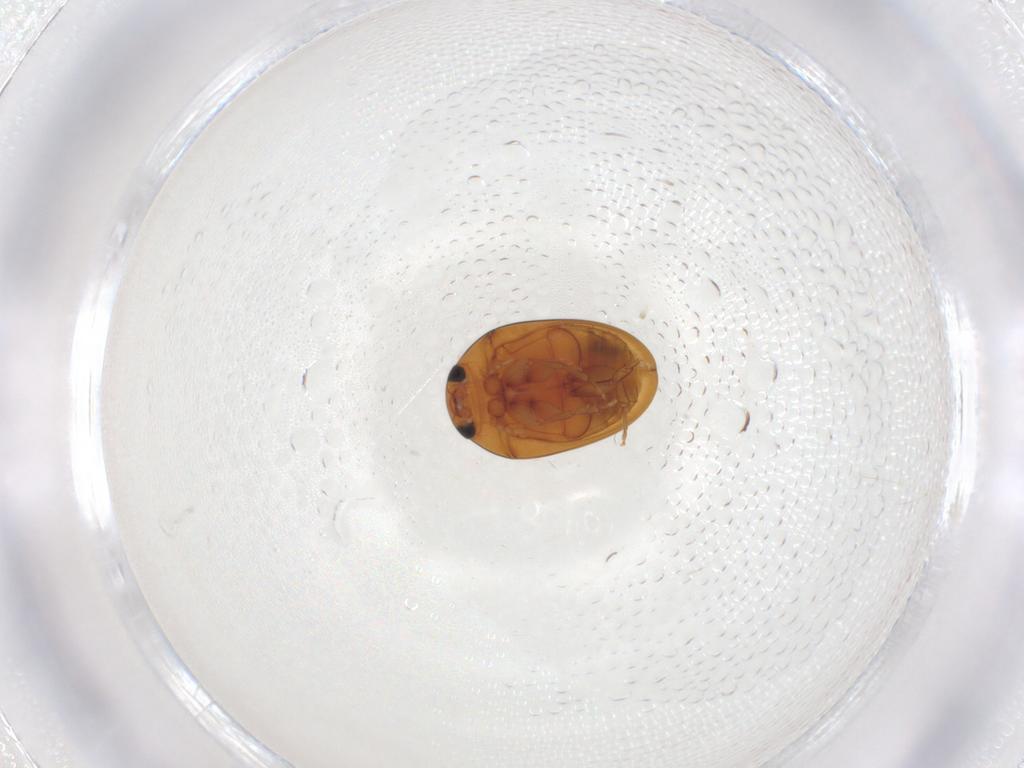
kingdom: Animalia
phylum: Arthropoda
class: Insecta
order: Coleoptera
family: Phalacridae
